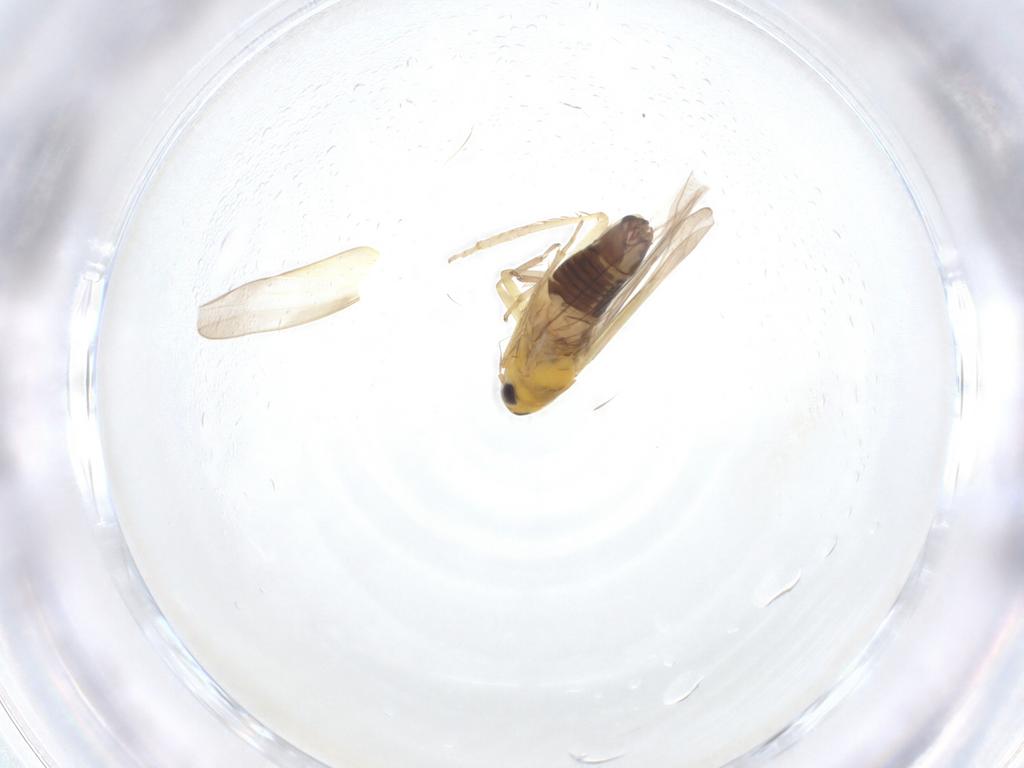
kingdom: Animalia
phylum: Arthropoda
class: Insecta
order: Hemiptera
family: Cicadellidae
